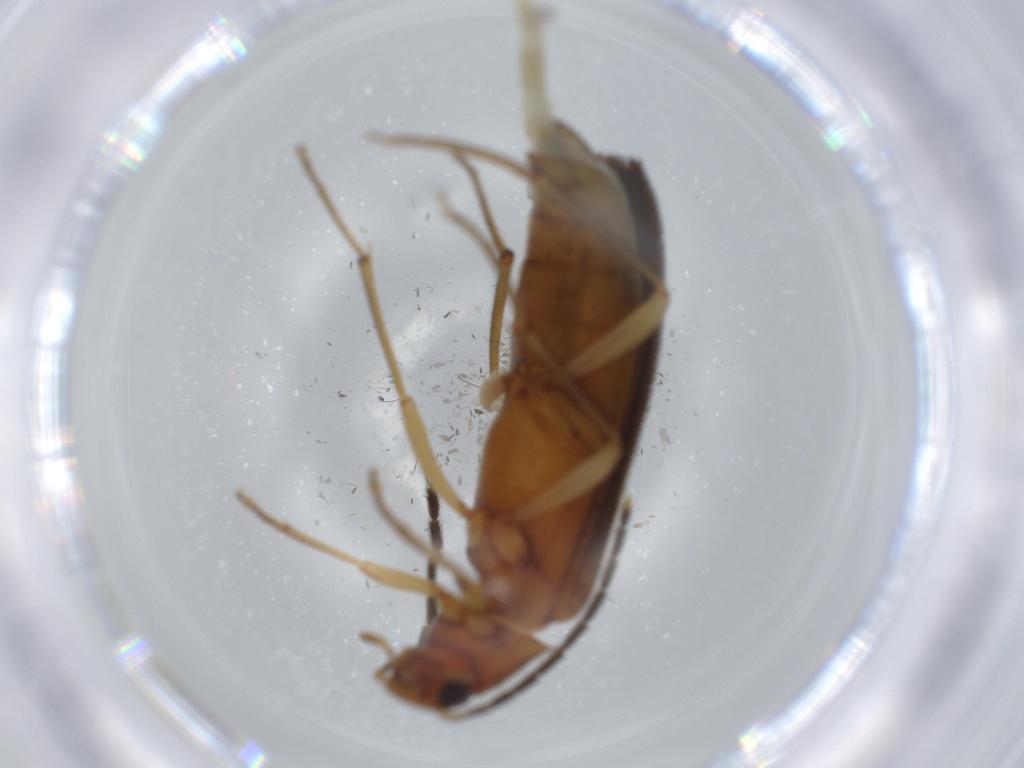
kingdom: Animalia
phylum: Arthropoda
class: Insecta
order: Coleoptera
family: Melandryidae
